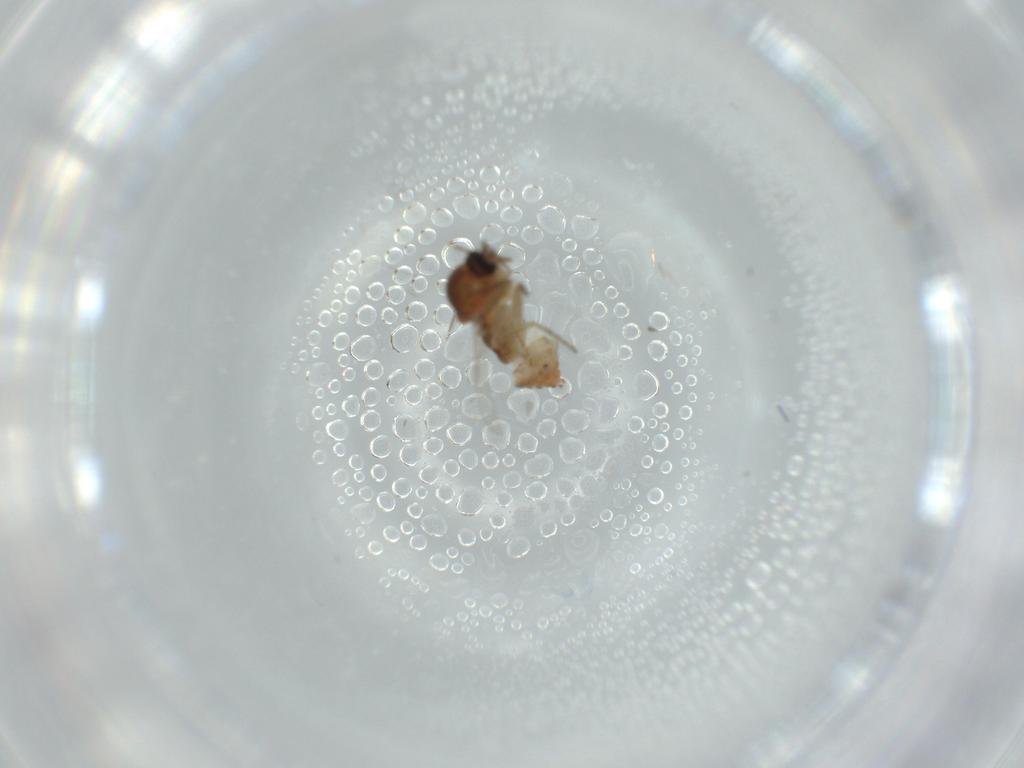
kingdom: Animalia
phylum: Arthropoda
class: Insecta
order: Diptera
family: Ceratopogonidae
